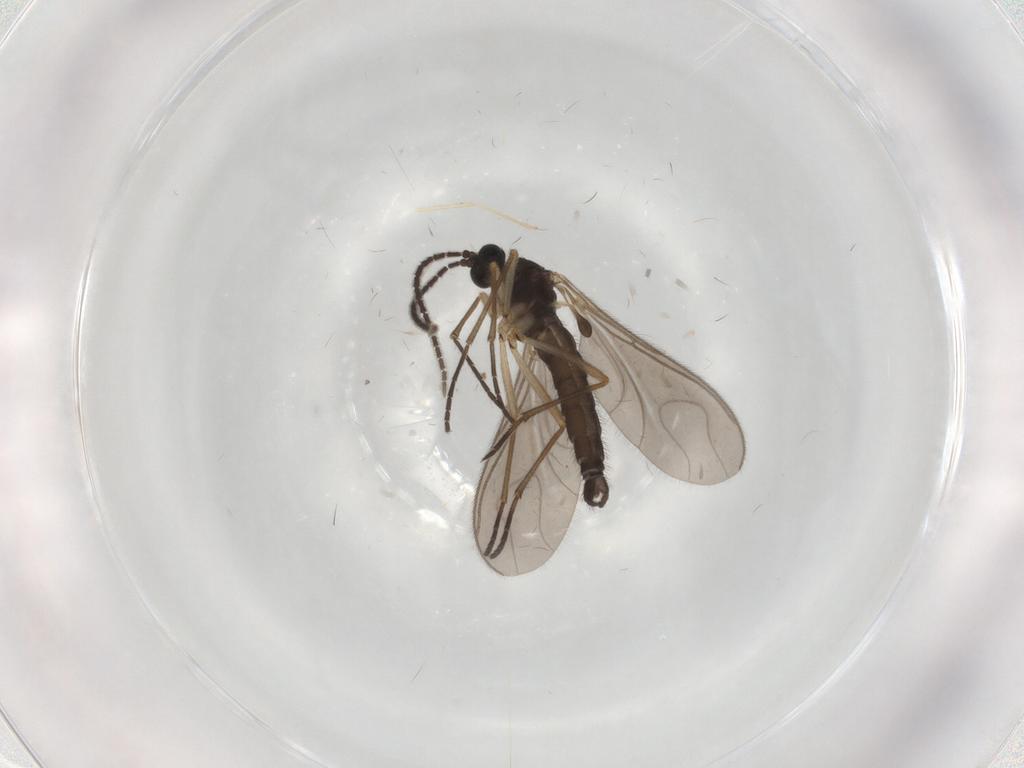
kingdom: Animalia
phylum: Arthropoda
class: Insecta
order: Diptera
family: Sciaridae
